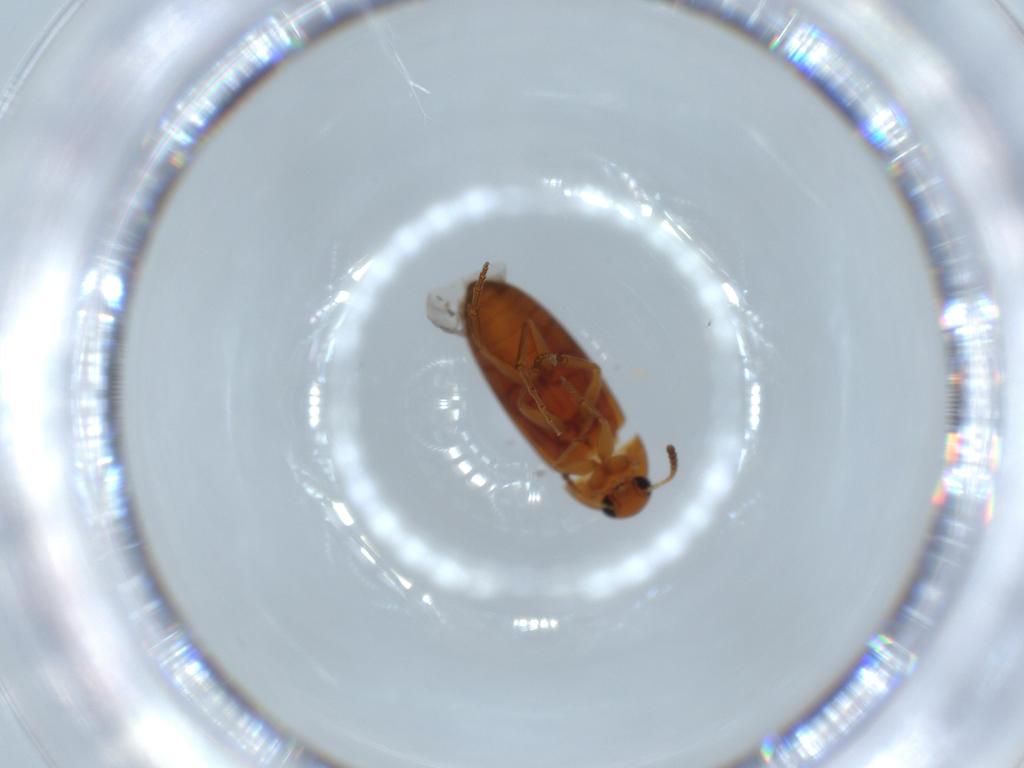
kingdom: Animalia
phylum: Arthropoda
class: Insecta
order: Coleoptera
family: Scraptiidae
